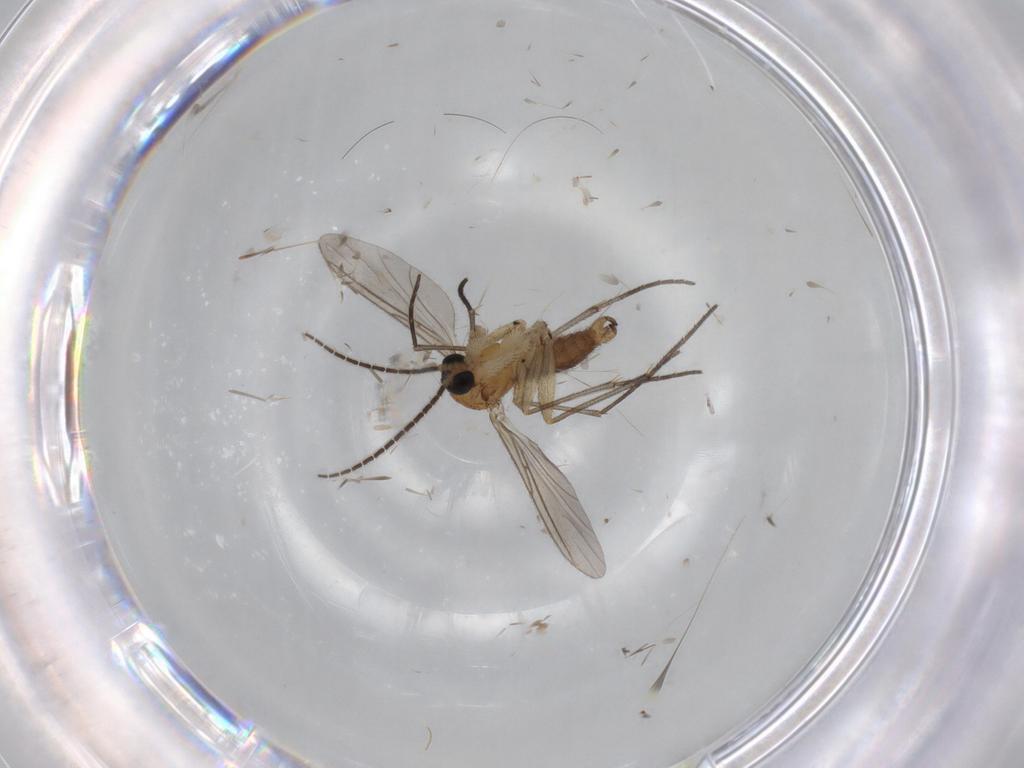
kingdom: Animalia
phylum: Arthropoda
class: Insecta
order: Diptera
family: Sciaridae
